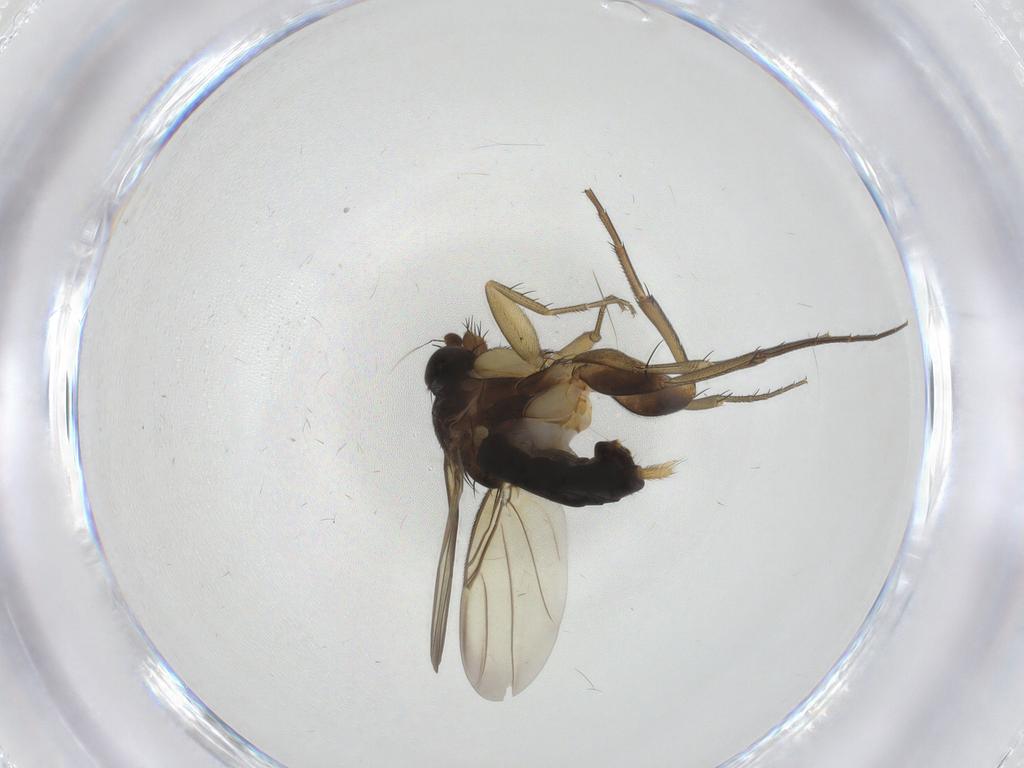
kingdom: Animalia
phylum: Arthropoda
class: Insecta
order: Diptera
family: Phoridae
